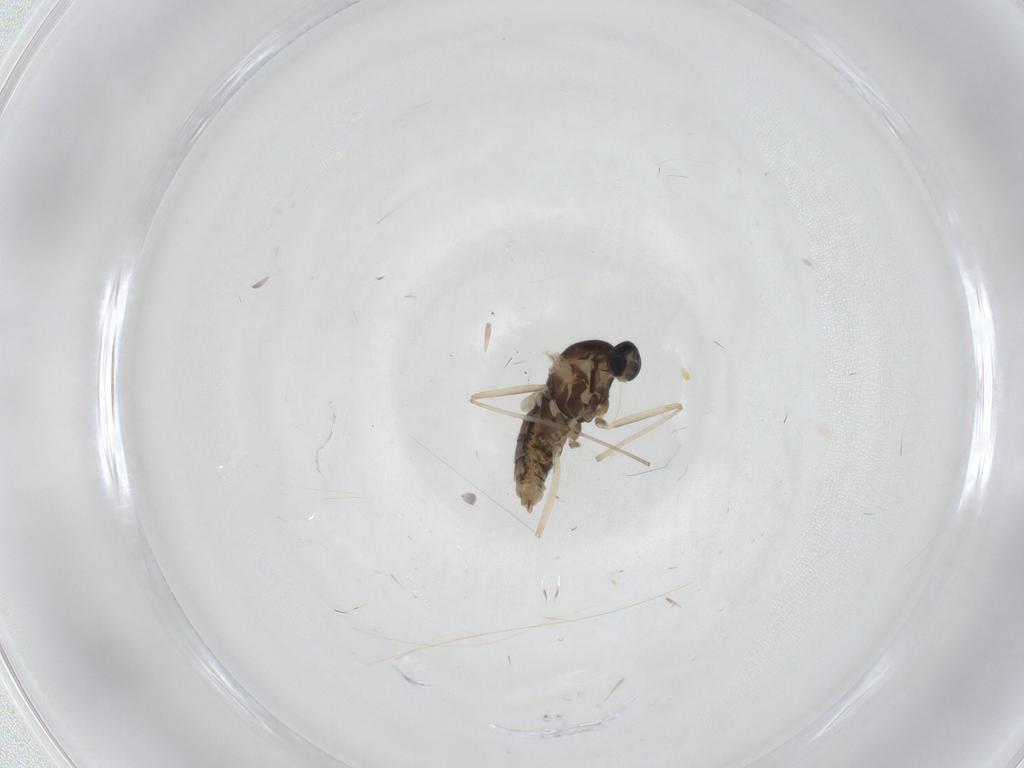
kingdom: Animalia
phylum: Arthropoda
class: Insecta
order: Diptera
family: Cecidomyiidae
